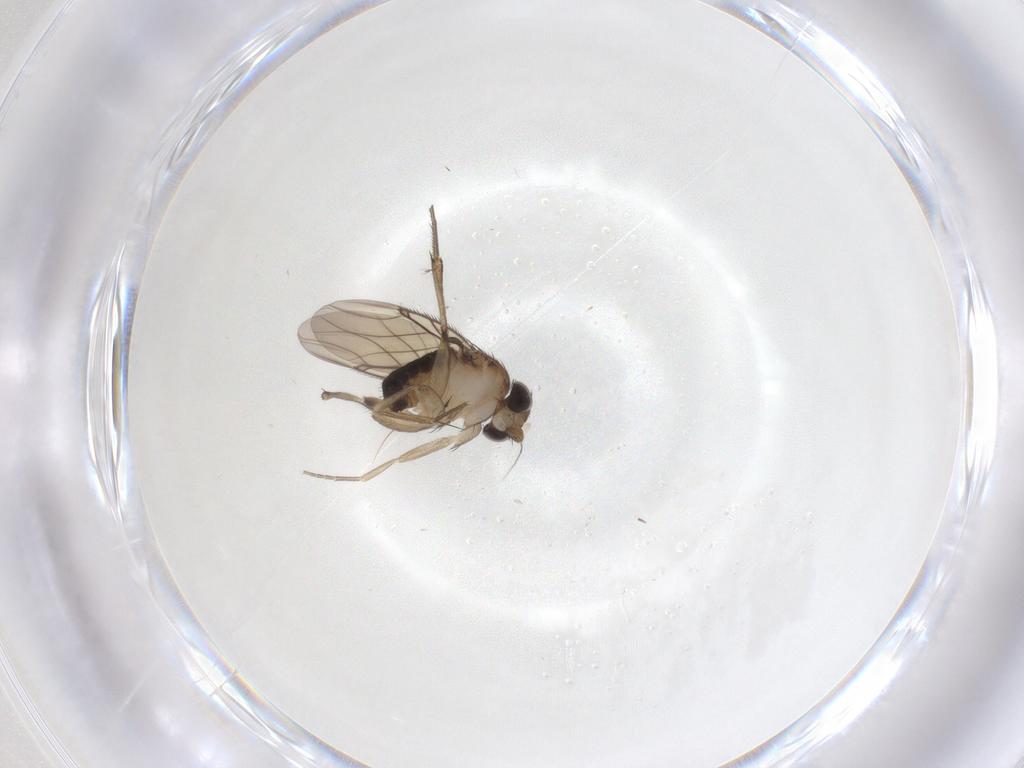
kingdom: Animalia
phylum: Arthropoda
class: Insecta
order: Diptera
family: Phoridae
